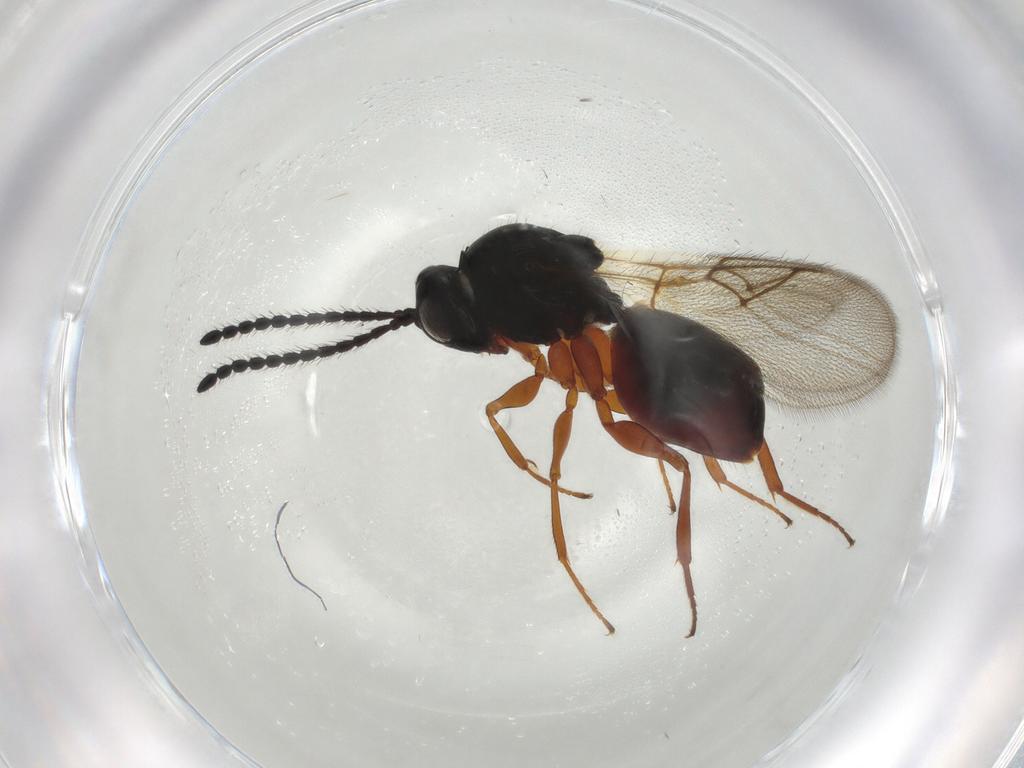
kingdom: Animalia
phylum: Arthropoda
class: Insecta
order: Hymenoptera
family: Figitidae
